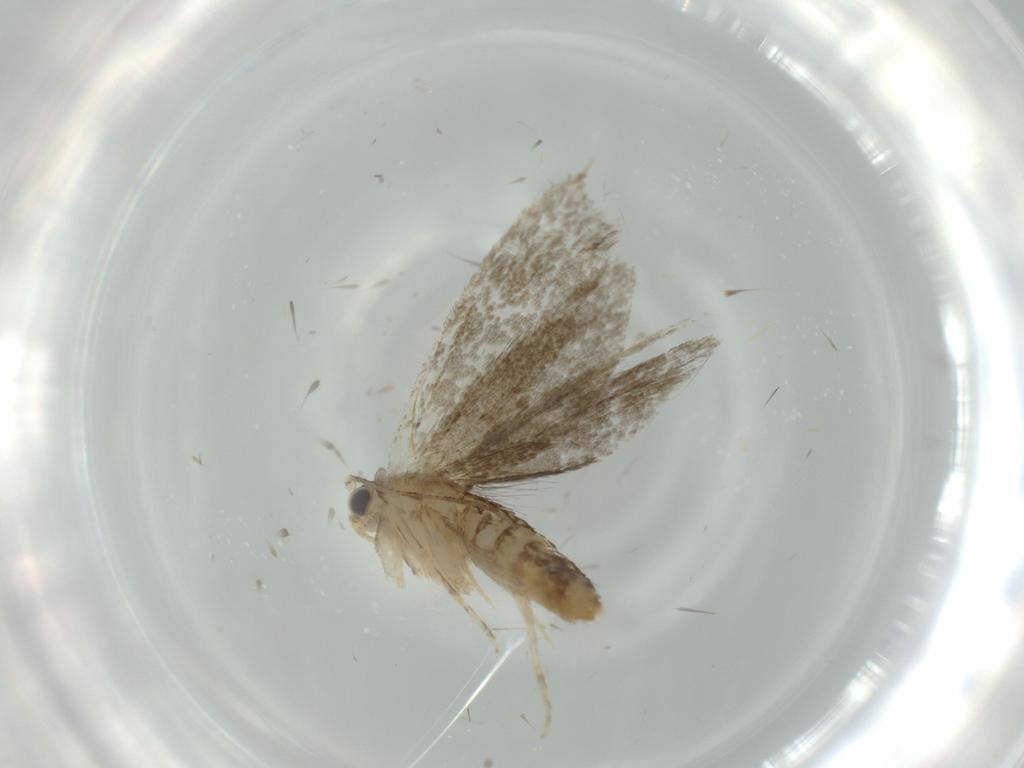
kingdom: Animalia
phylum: Arthropoda
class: Insecta
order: Lepidoptera
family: Tineidae
